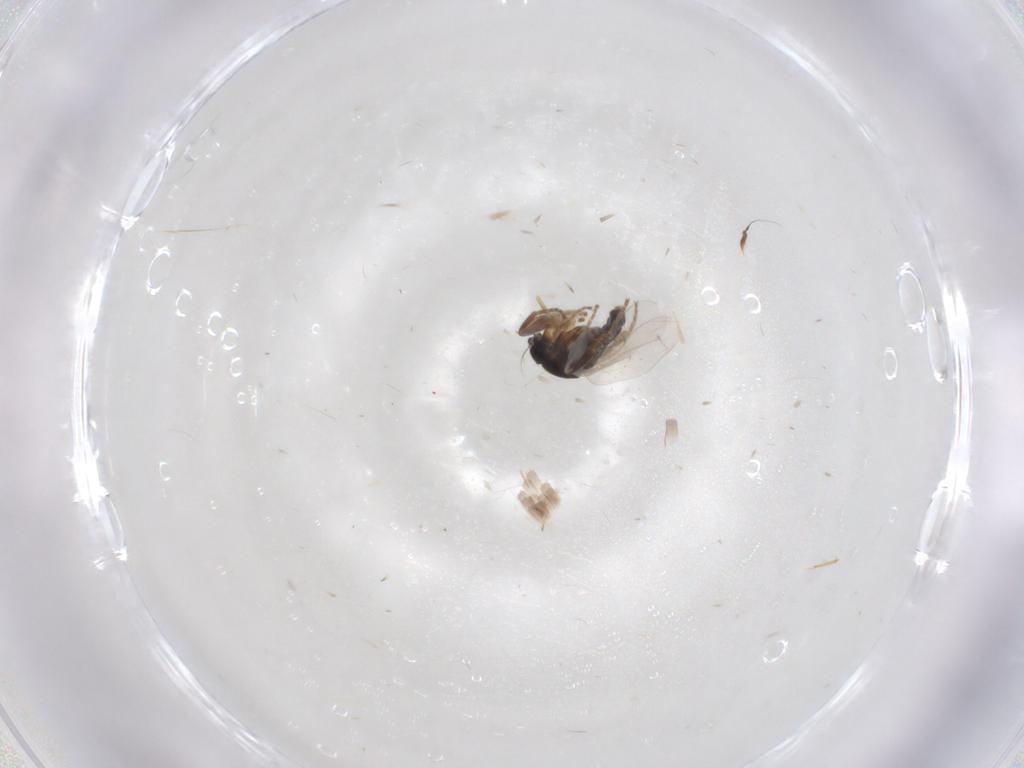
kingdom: Animalia
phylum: Arthropoda
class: Insecta
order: Diptera
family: Phoridae
